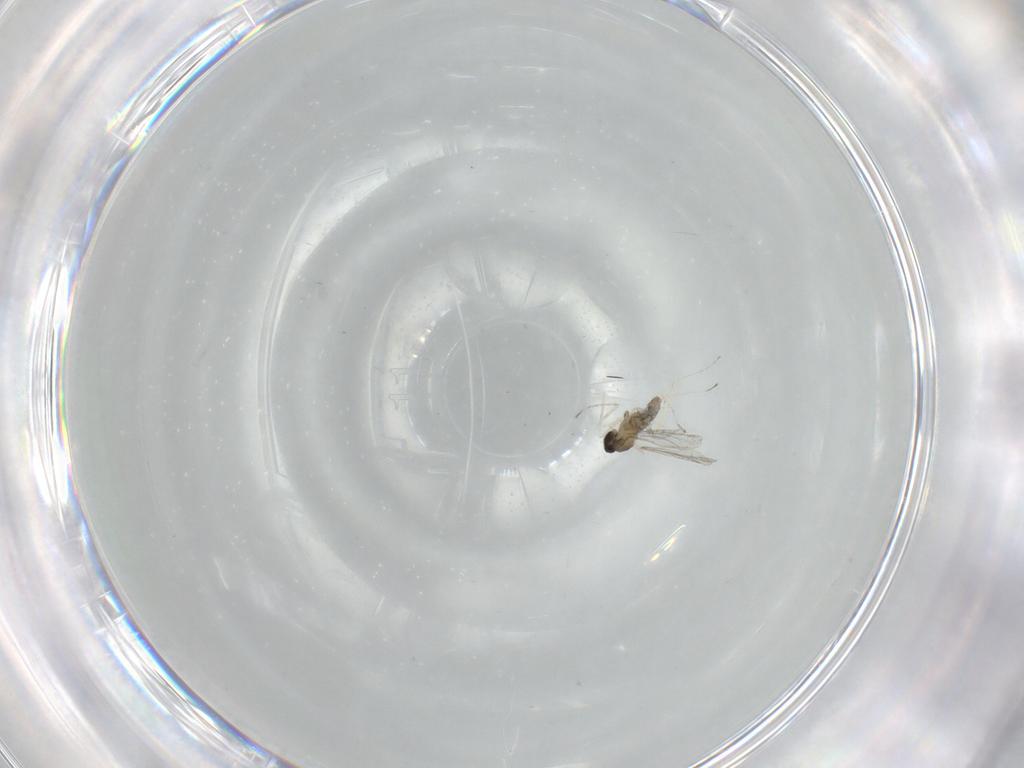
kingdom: Animalia
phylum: Arthropoda
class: Insecta
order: Diptera
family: Cecidomyiidae
